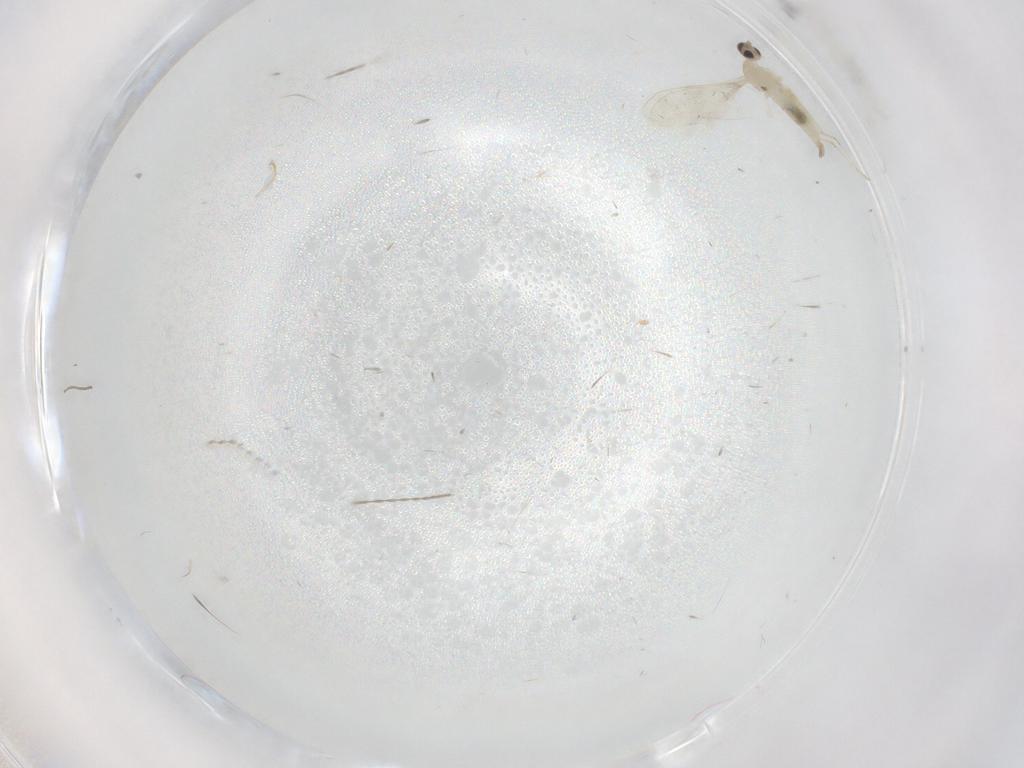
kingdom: Animalia
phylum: Arthropoda
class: Insecta
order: Diptera
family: Cecidomyiidae
